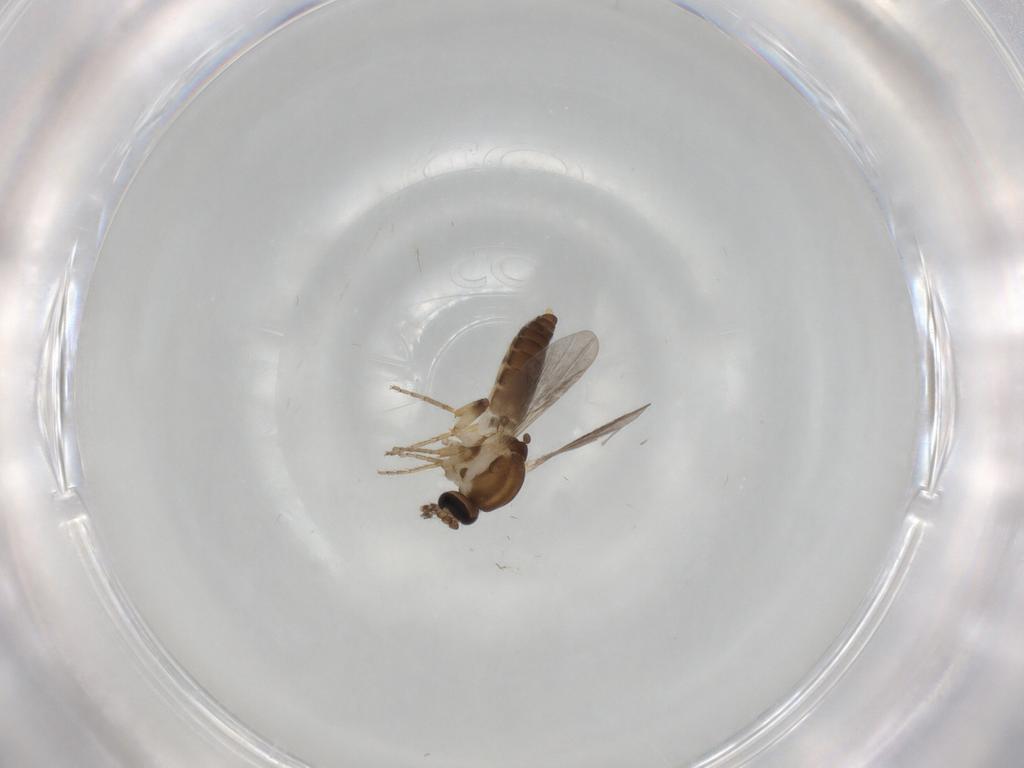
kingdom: Animalia
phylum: Arthropoda
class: Insecta
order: Diptera
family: Ceratopogonidae
